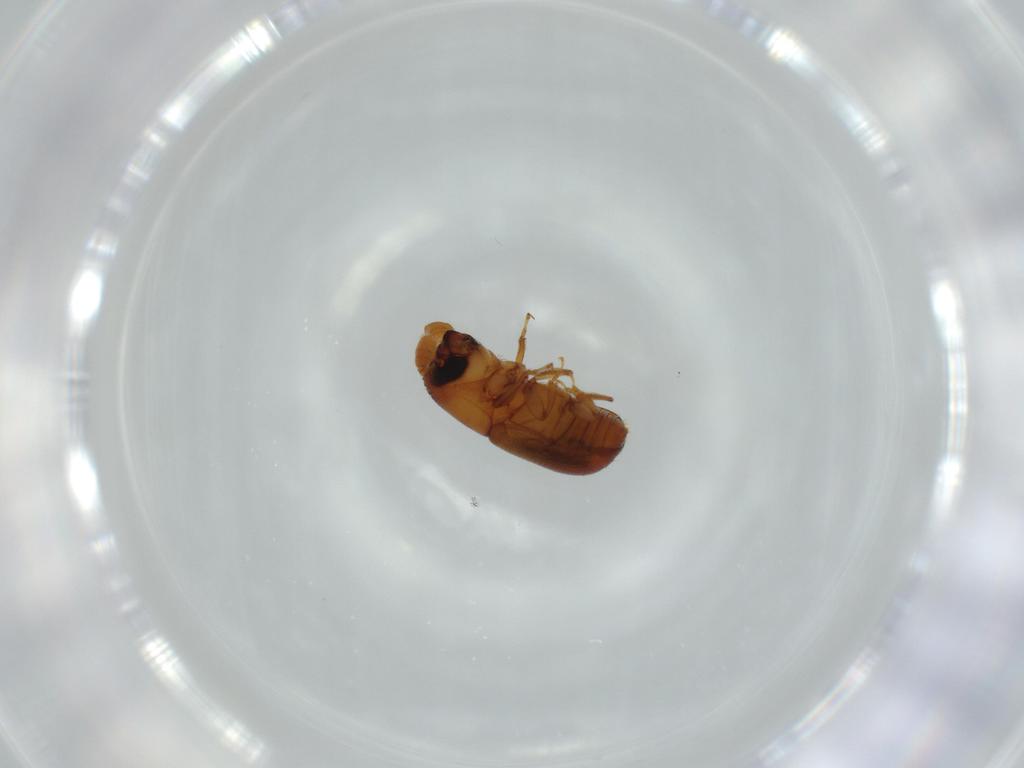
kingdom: Animalia
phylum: Arthropoda
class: Insecta
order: Coleoptera
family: Curculionidae
